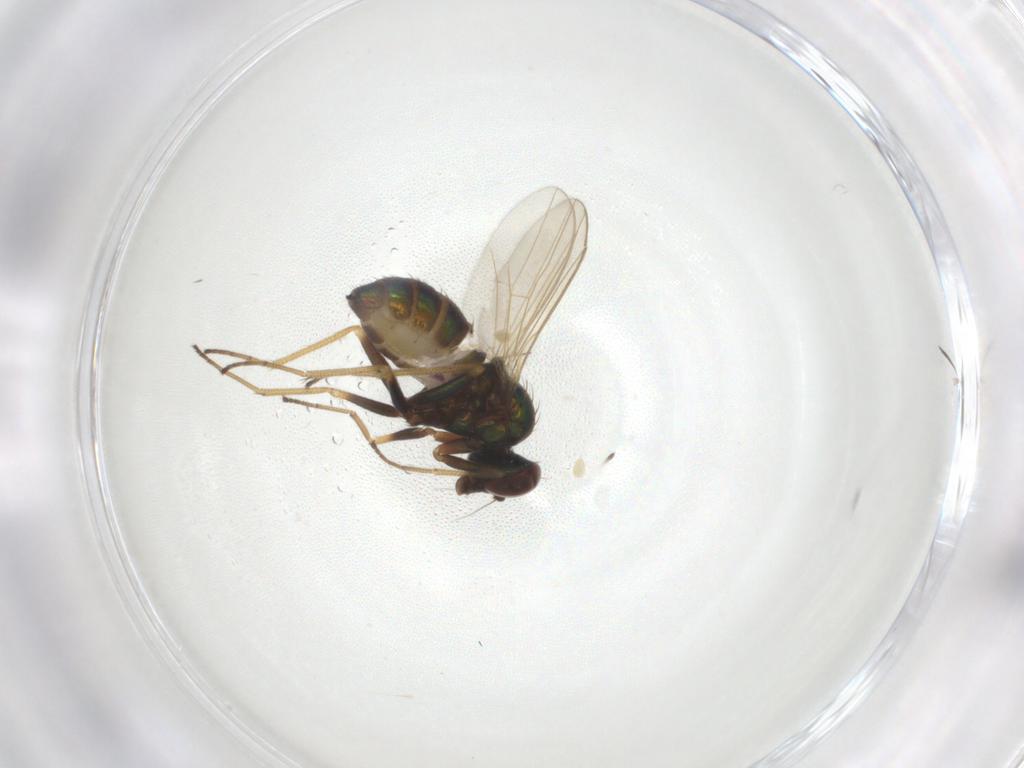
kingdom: Animalia
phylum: Arthropoda
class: Insecta
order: Diptera
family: Dolichopodidae
